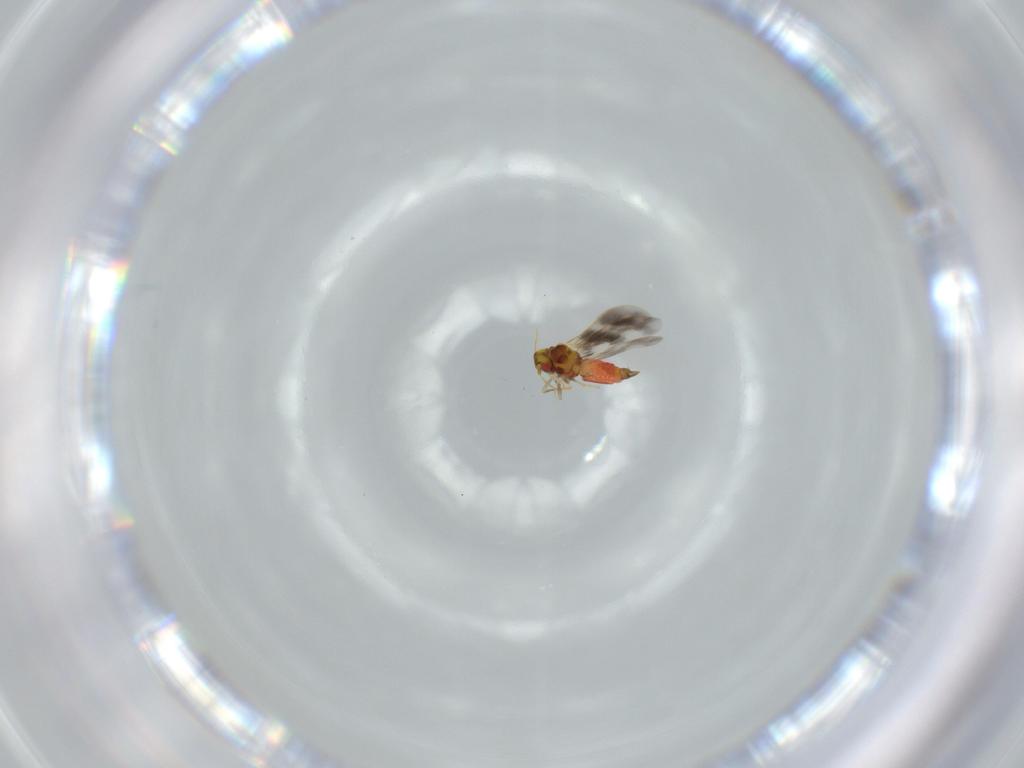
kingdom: Animalia
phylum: Arthropoda
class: Insecta
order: Hemiptera
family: Aleyrodidae
